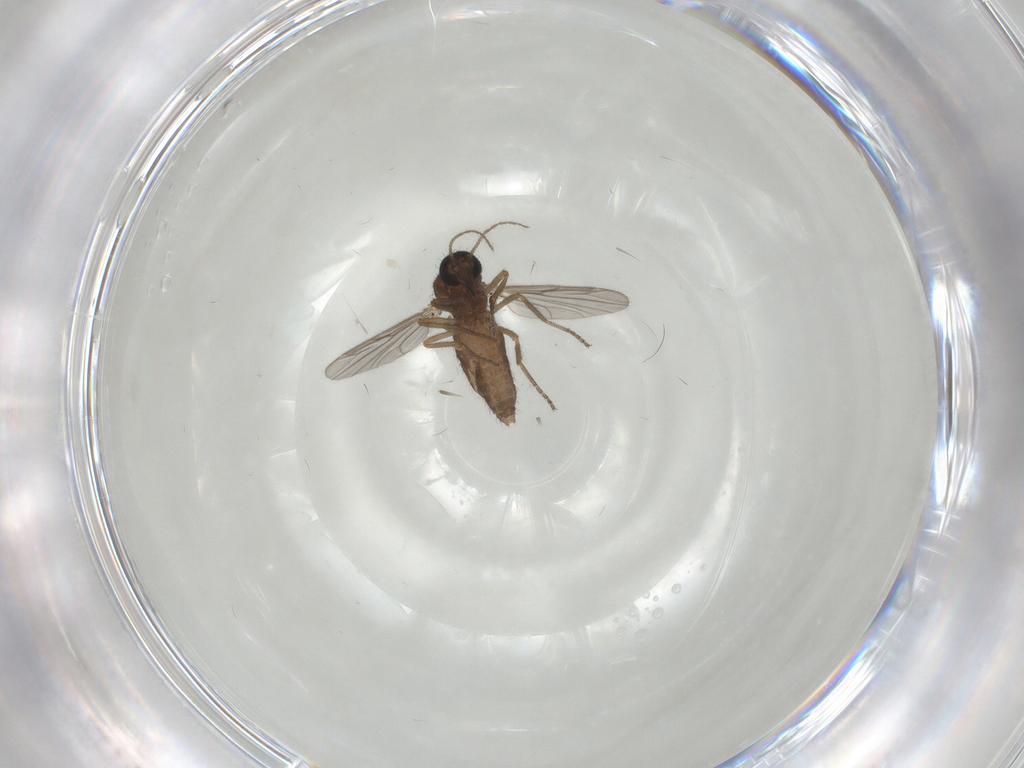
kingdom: Animalia
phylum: Arthropoda
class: Insecta
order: Diptera
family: Ceratopogonidae
